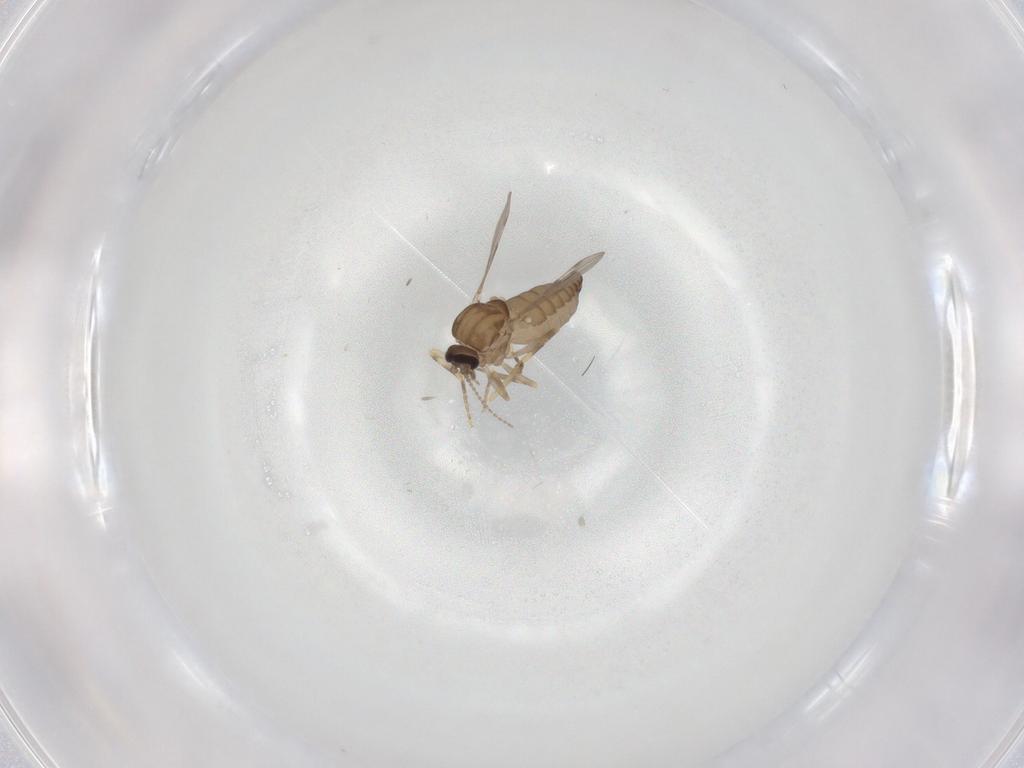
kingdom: Animalia
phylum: Arthropoda
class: Insecta
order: Diptera
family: Ceratopogonidae
